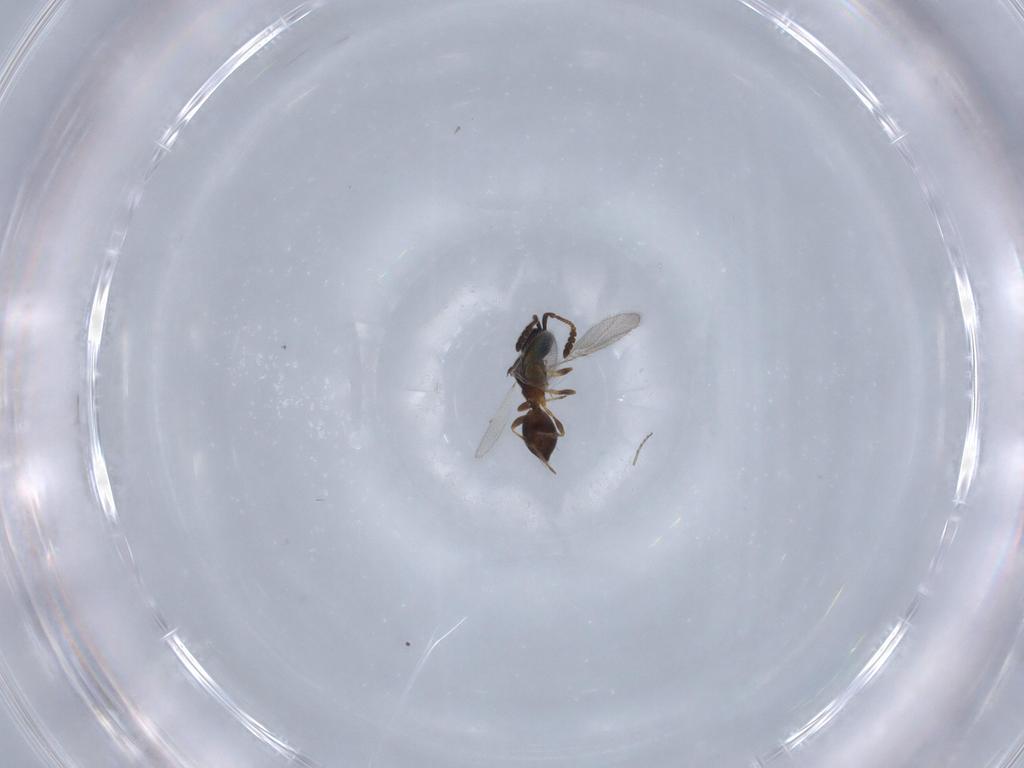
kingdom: Animalia
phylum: Arthropoda
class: Insecta
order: Hymenoptera
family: Diapriidae
